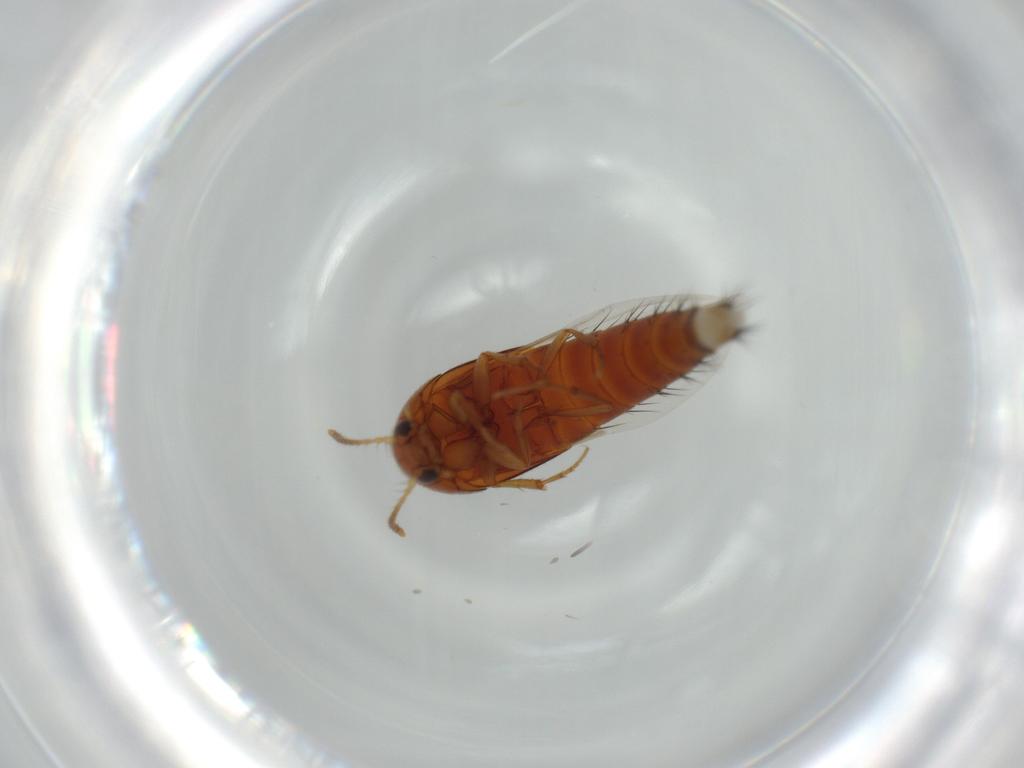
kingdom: Animalia
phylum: Arthropoda
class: Insecta
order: Coleoptera
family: Staphylinidae
